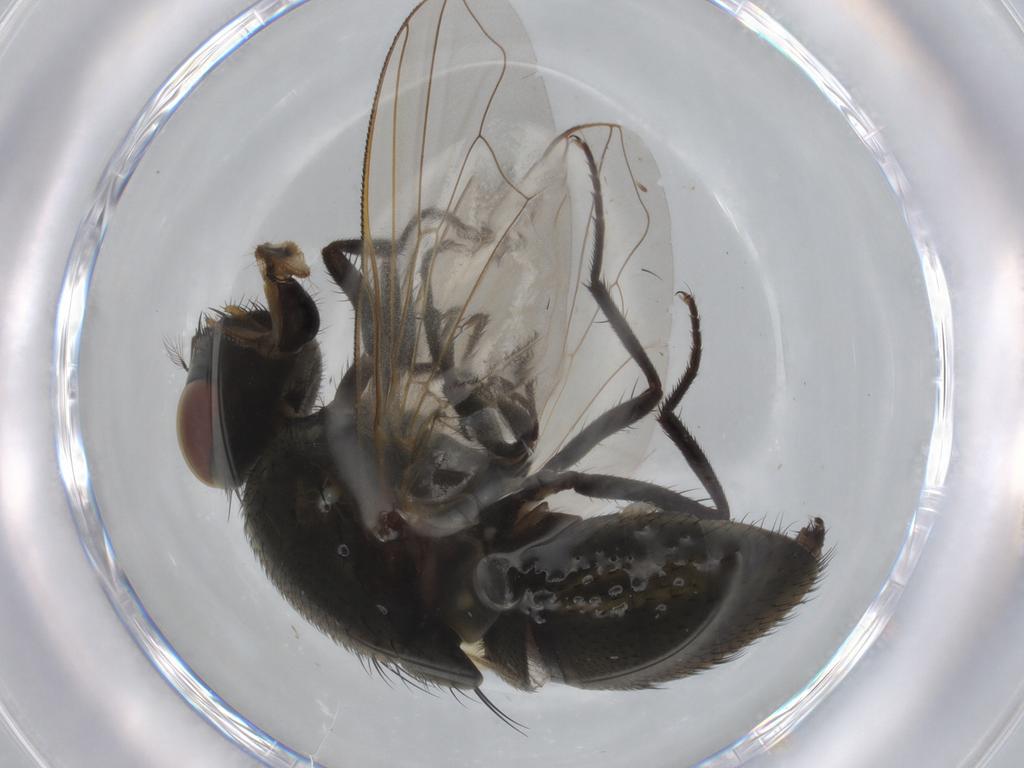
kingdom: Animalia
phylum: Arthropoda
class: Insecta
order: Diptera
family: Muscidae
